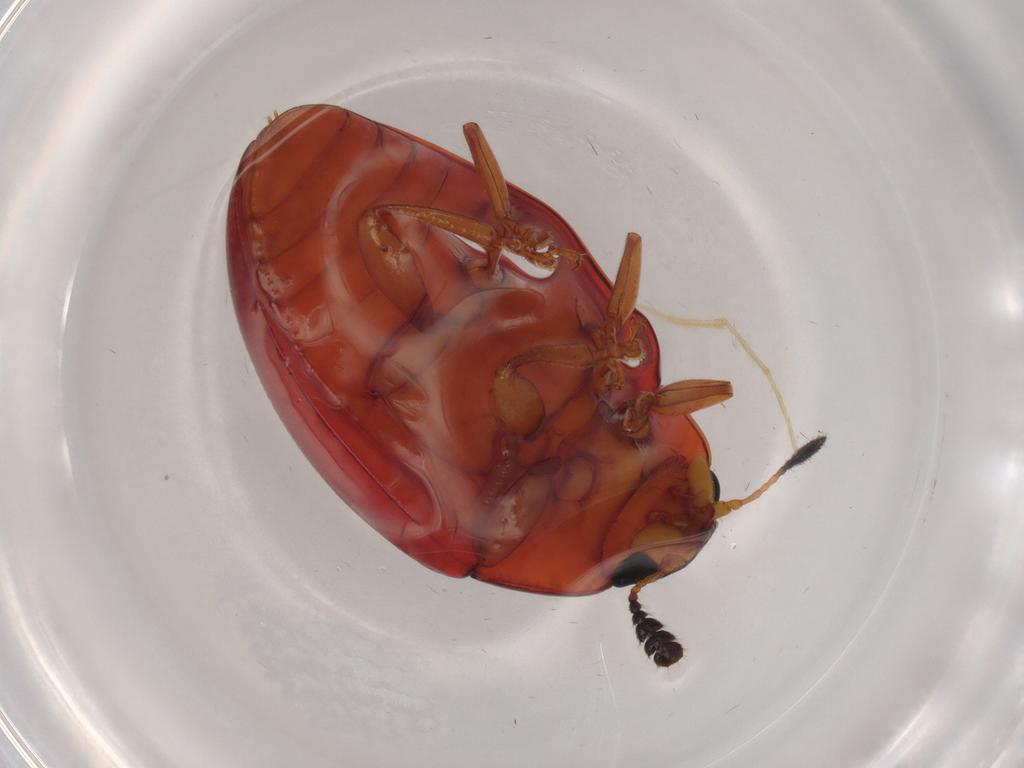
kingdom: Animalia
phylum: Arthropoda
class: Insecta
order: Coleoptera
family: Erotylidae
